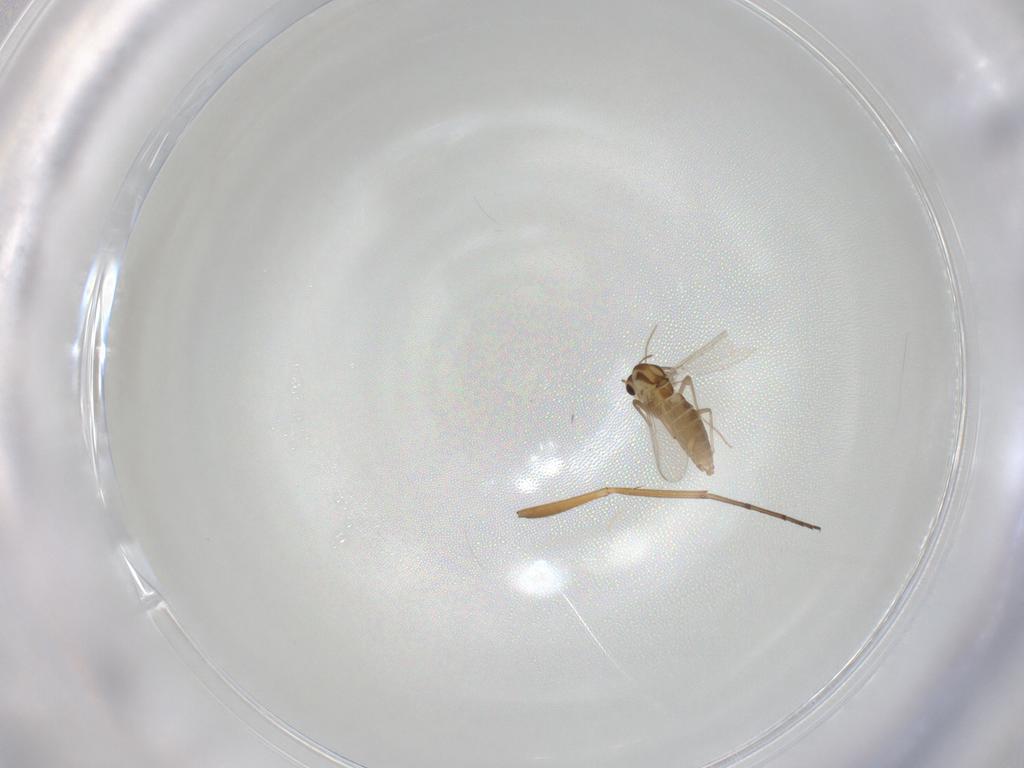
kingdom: Animalia
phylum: Arthropoda
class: Insecta
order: Diptera
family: Chironomidae
